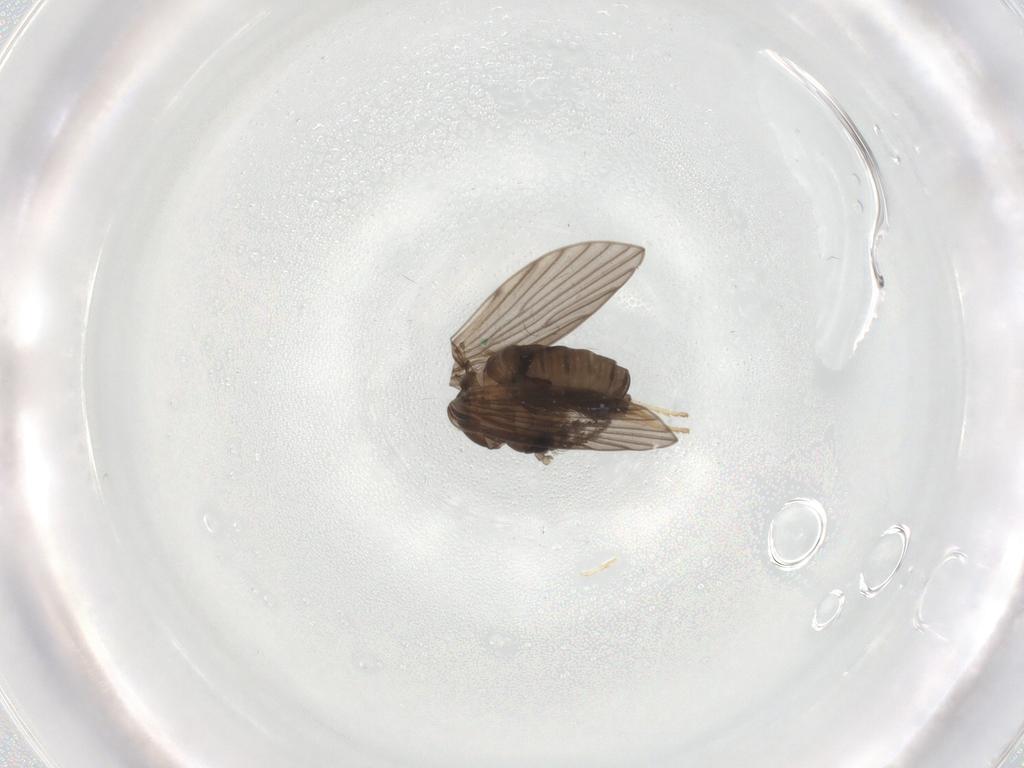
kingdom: Animalia
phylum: Arthropoda
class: Insecta
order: Diptera
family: Psychodidae
